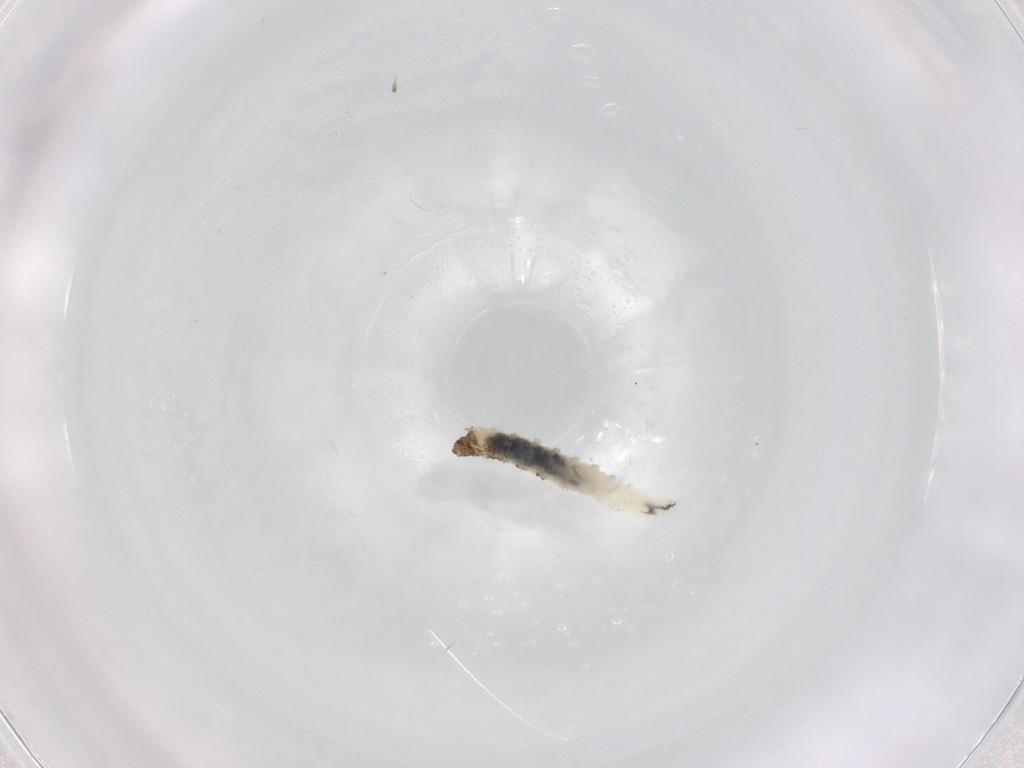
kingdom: Animalia
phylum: Arthropoda
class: Insecta
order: Diptera
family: Phoridae
